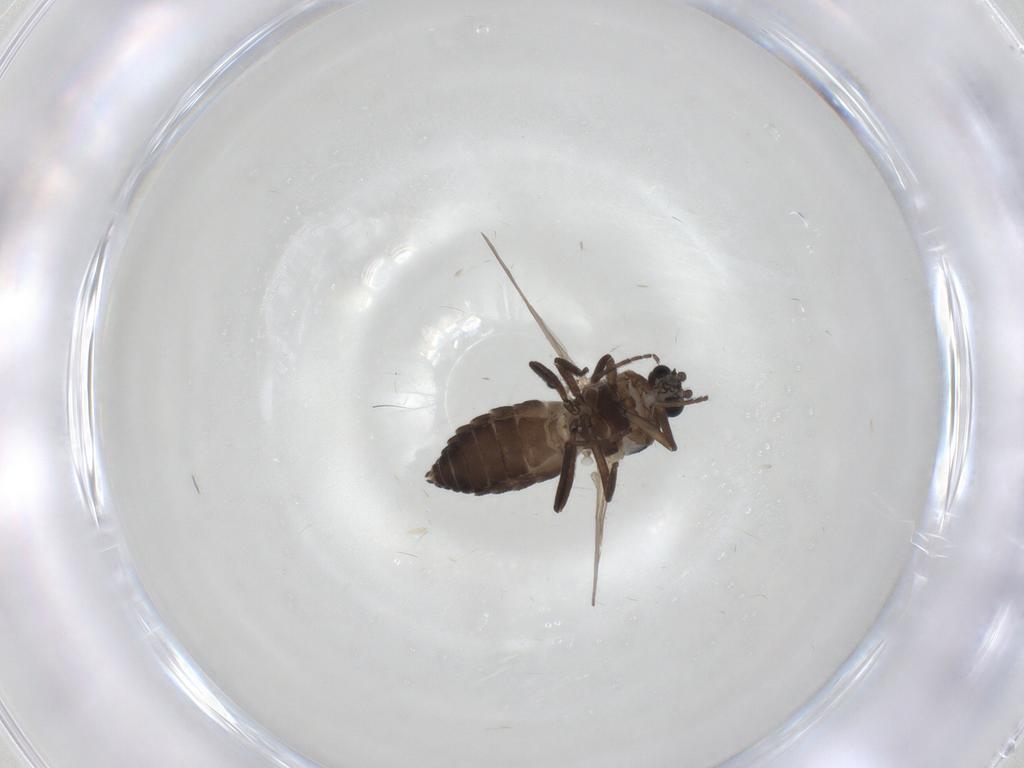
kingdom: Animalia
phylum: Arthropoda
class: Insecta
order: Diptera
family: Ceratopogonidae
